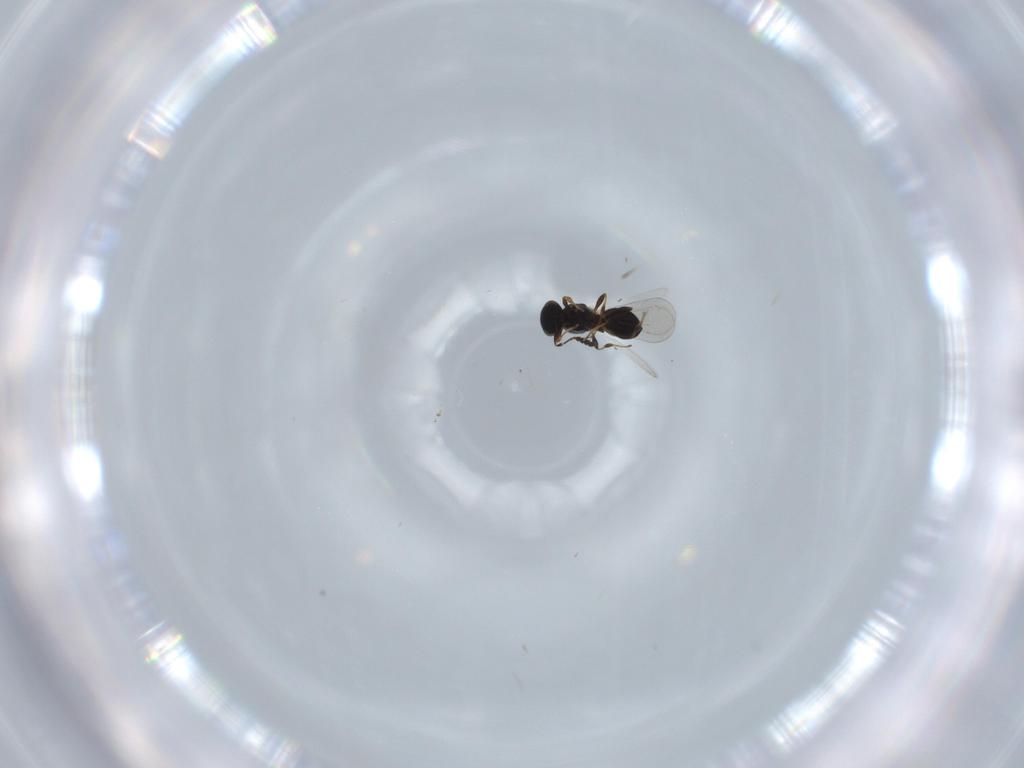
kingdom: Animalia
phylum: Arthropoda
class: Insecta
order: Hymenoptera
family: Platygastridae
